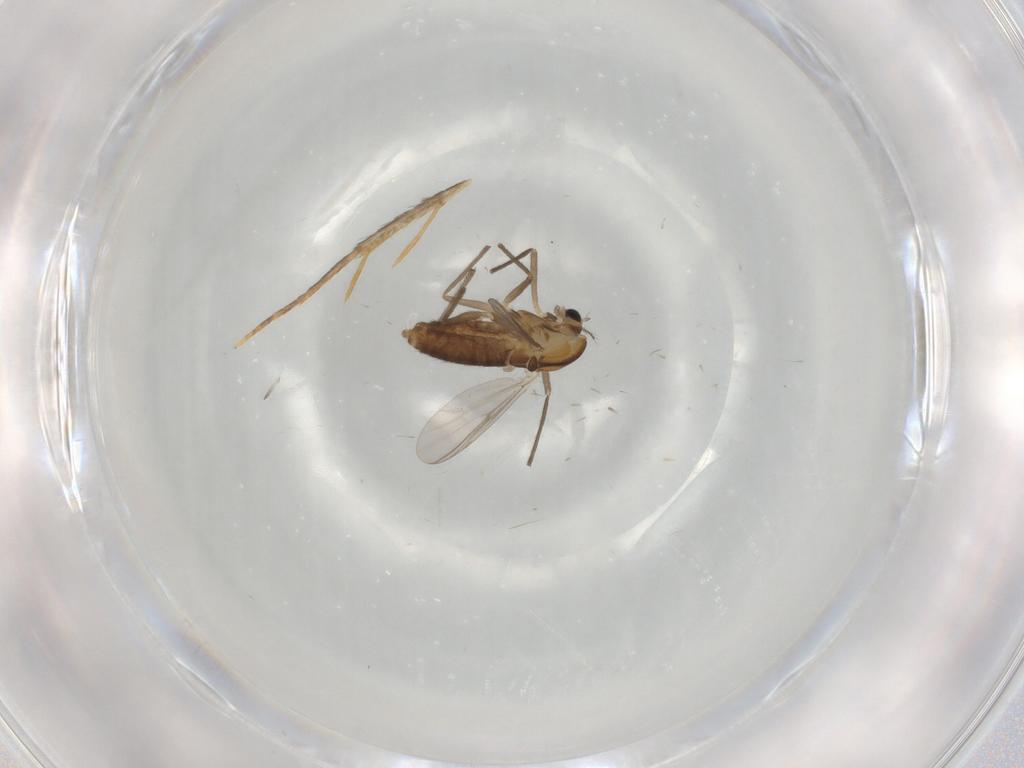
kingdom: Animalia
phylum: Arthropoda
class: Insecta
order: Diptera
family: Chironomidae
